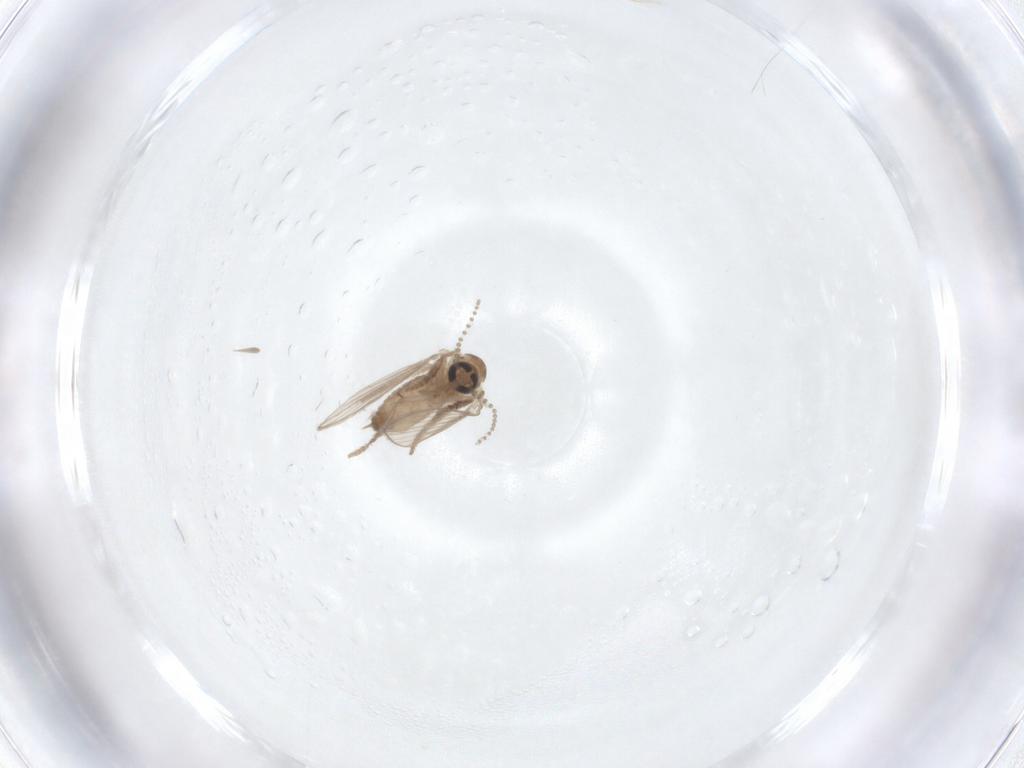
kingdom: Animalia
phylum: Arthropoda
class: Insecta
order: Diptera
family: Psychodidae
